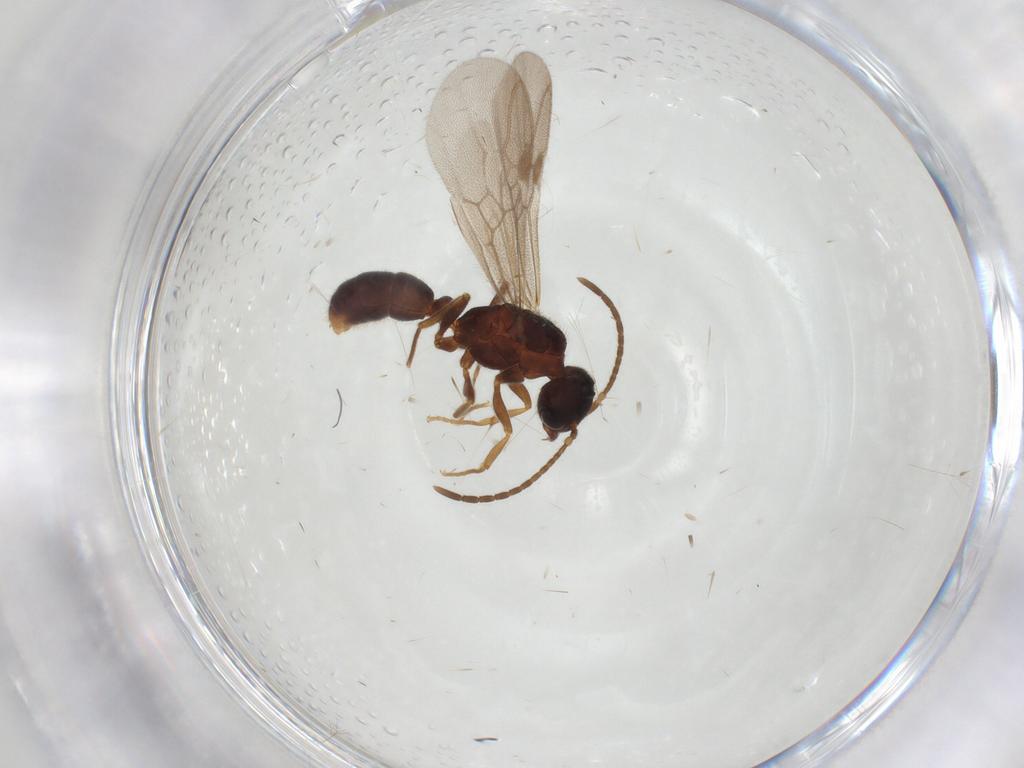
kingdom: Animalia
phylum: Arthropoda
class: Insecta
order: Hymenoptera
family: Formicidae
